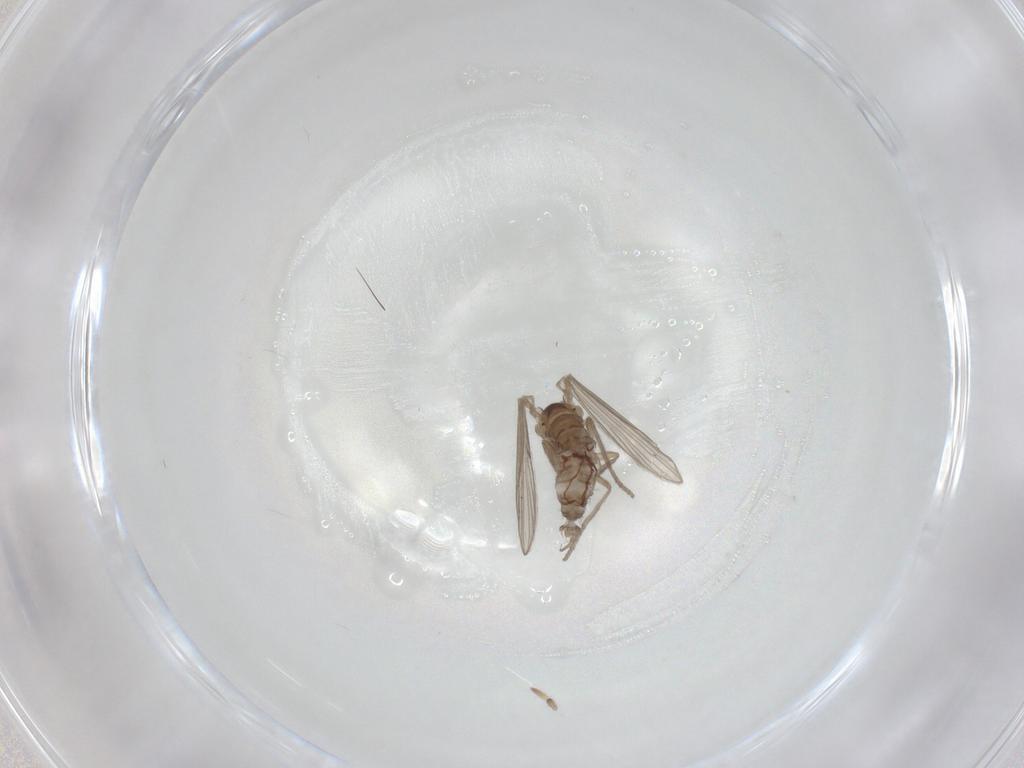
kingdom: Animalia
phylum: Arthropoda
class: Insecta
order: Diptera
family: Psychodidae
